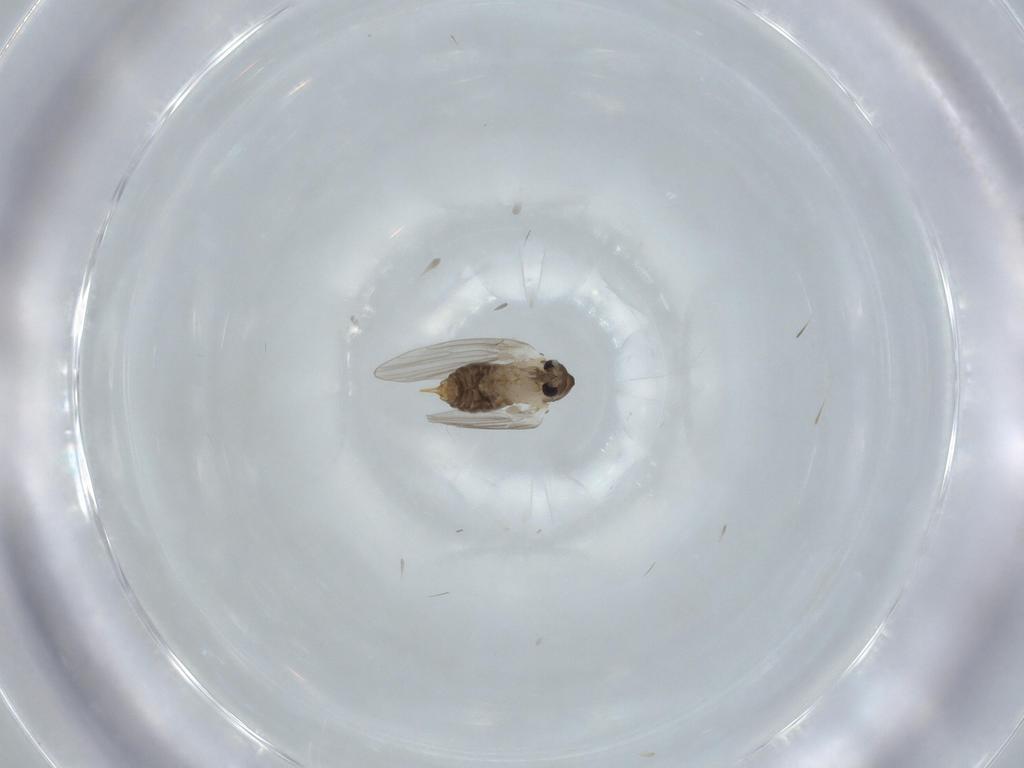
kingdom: Animalia
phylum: Arthropoda
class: Insecta
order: Diptera
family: Psychodidae
